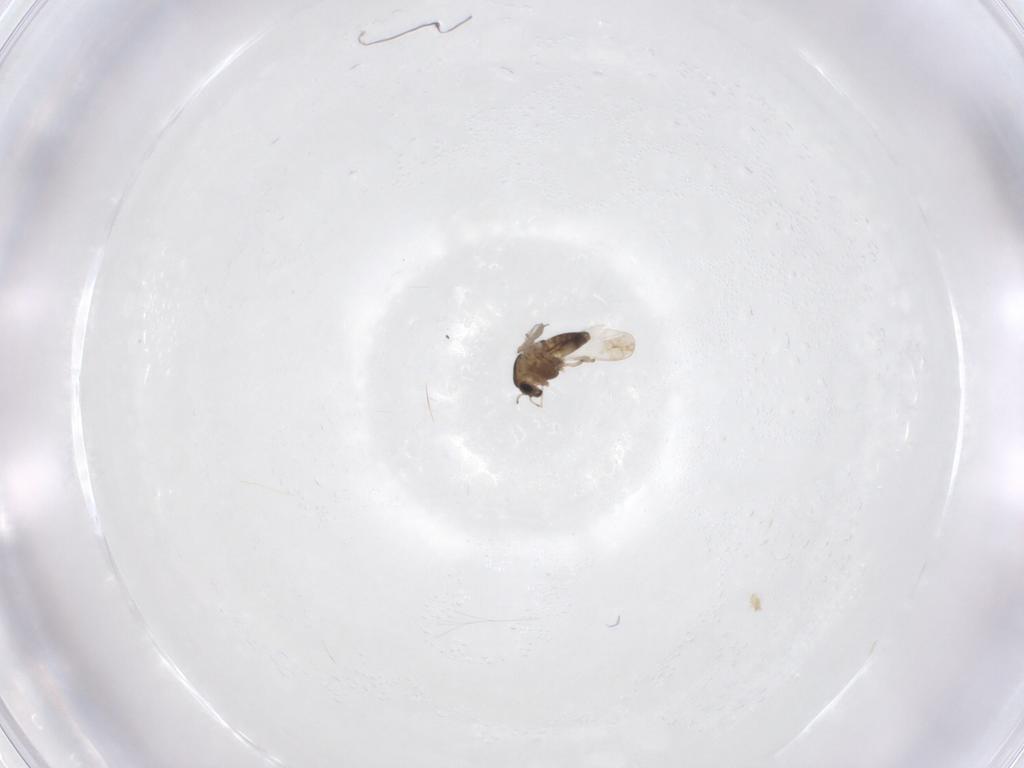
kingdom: Animalia
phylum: Arthropoda
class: Insecta
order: Diptera
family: Chironomidae
